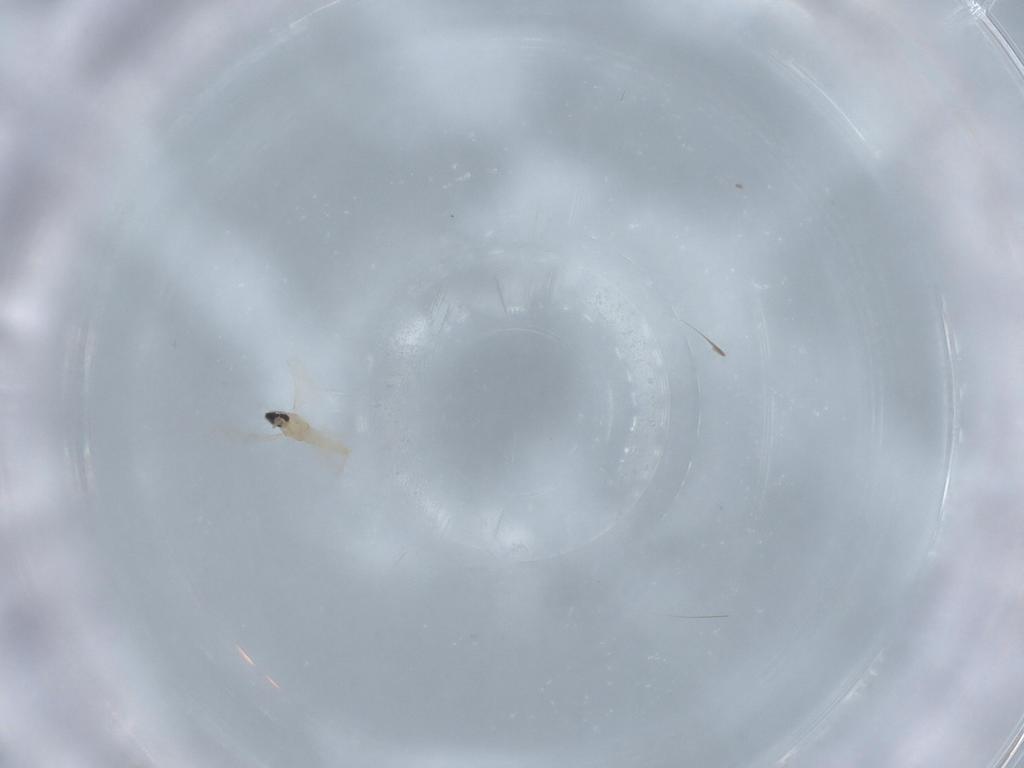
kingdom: Animalia
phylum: Arthropoda
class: Insecta
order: Diptera
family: Cecidomyiidae
